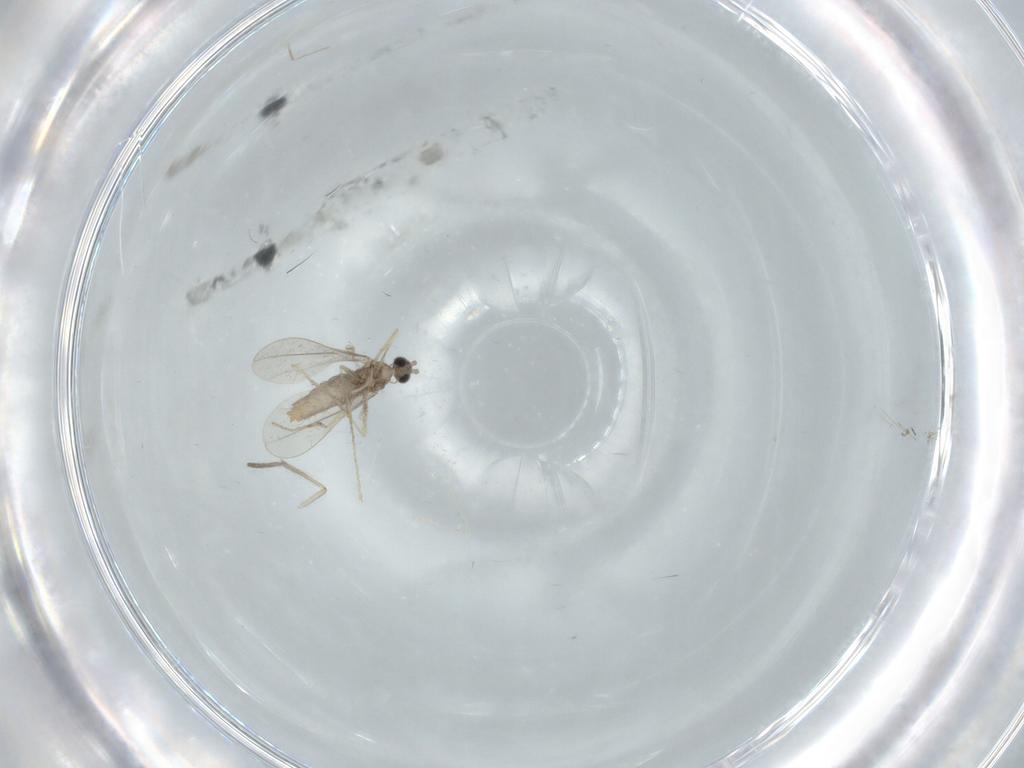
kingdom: Animalia
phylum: Arthropoda
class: Insecta
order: Diptera
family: Cecidomyiidae
